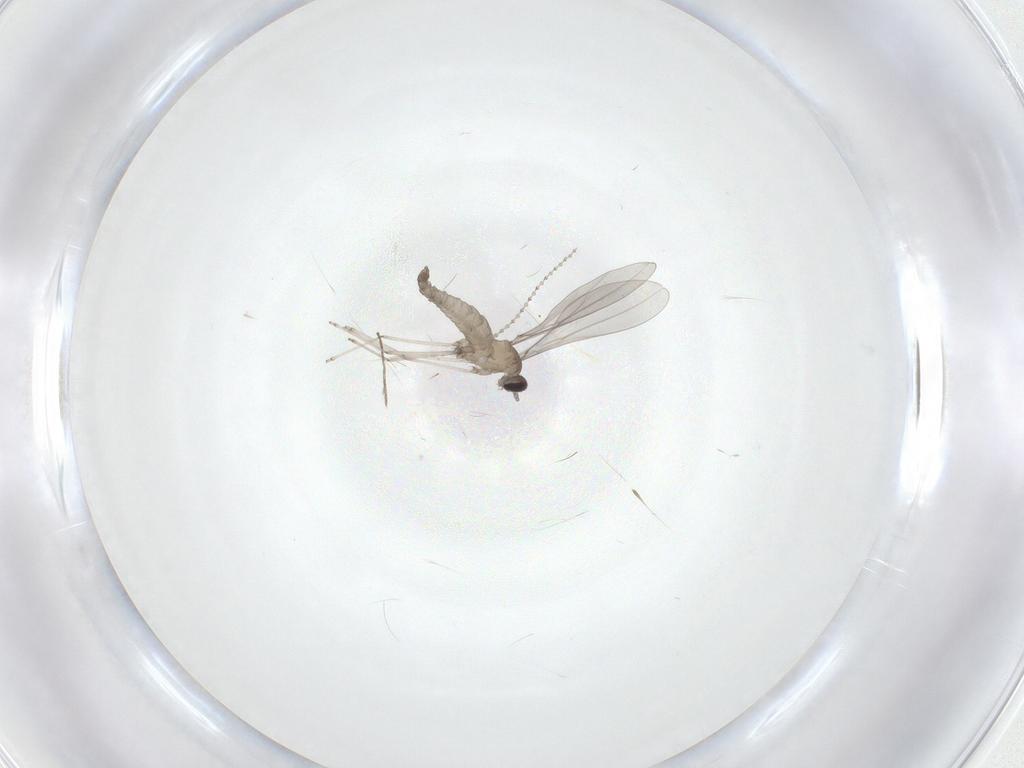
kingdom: Animalia
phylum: Arthropoda
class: Insecta
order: Diptera
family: Cecidomyiidae
